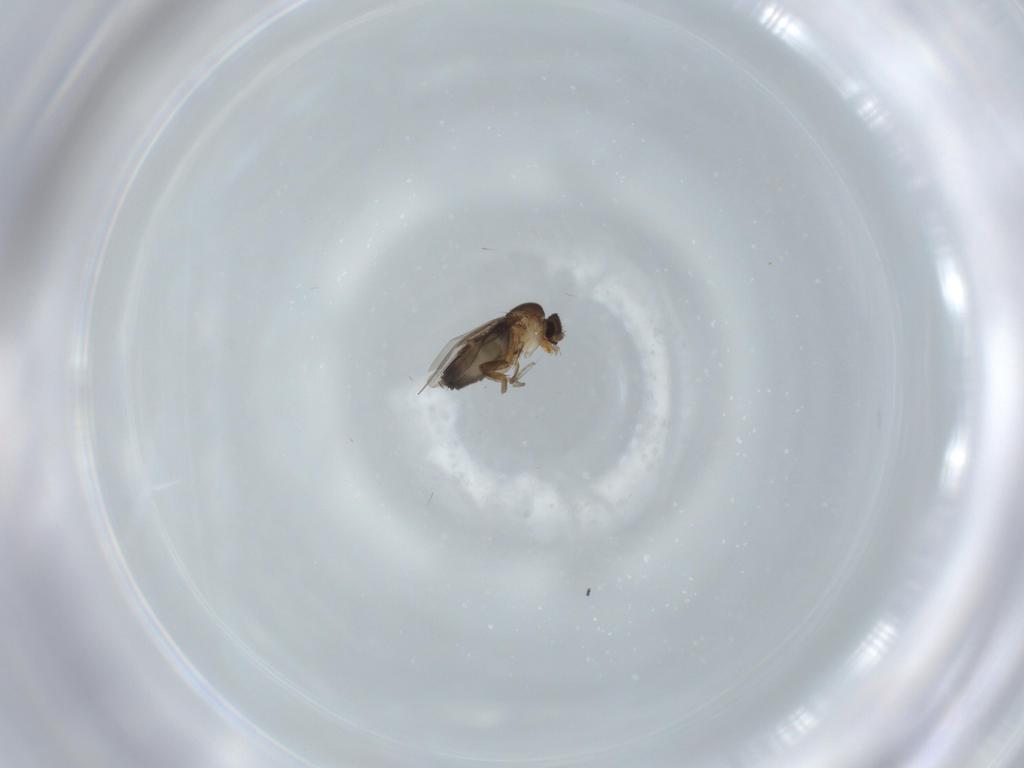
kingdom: Animalia
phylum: Arthropoda
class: Insecta
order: Diptera
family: Phoridae
